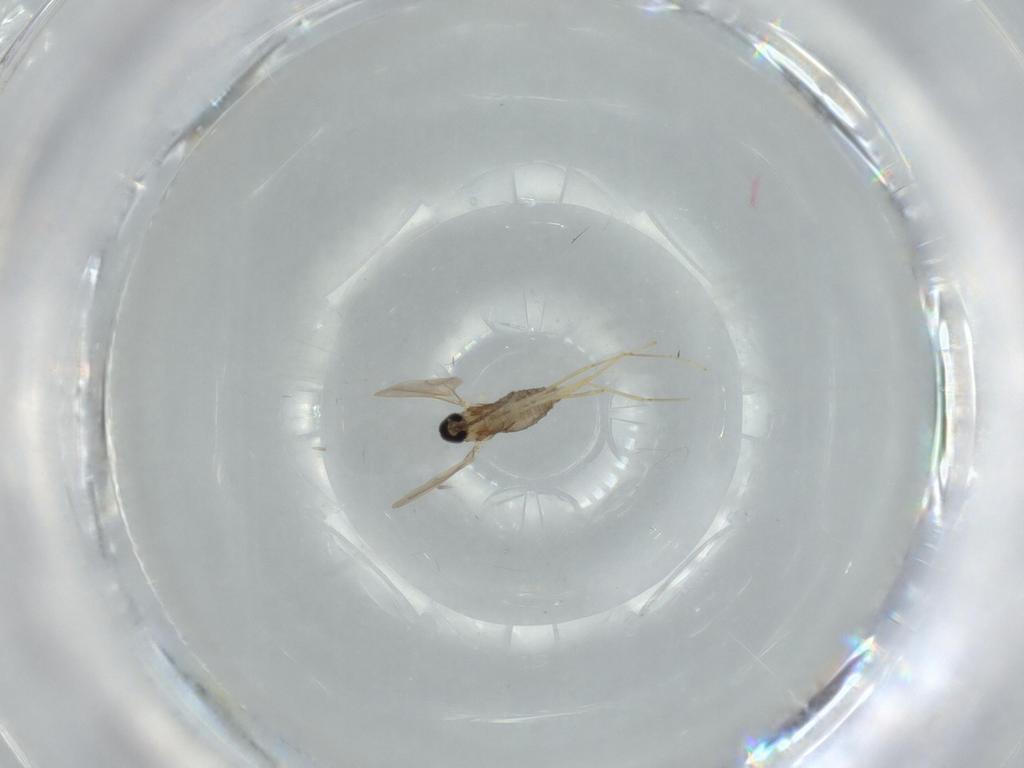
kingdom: Animalia
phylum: Arthropoda
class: Insecta
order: Diptera
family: Cecidomyiidae
